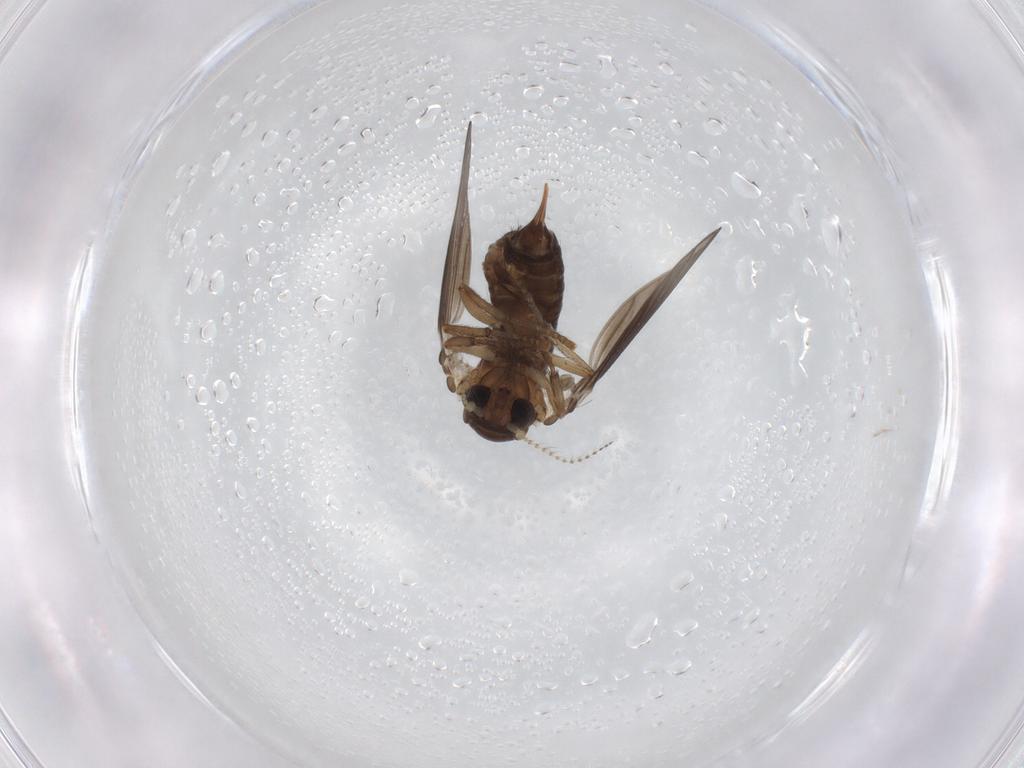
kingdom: Animalia
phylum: Arthropoda
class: Insecta
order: Diptera
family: Psychodidae
